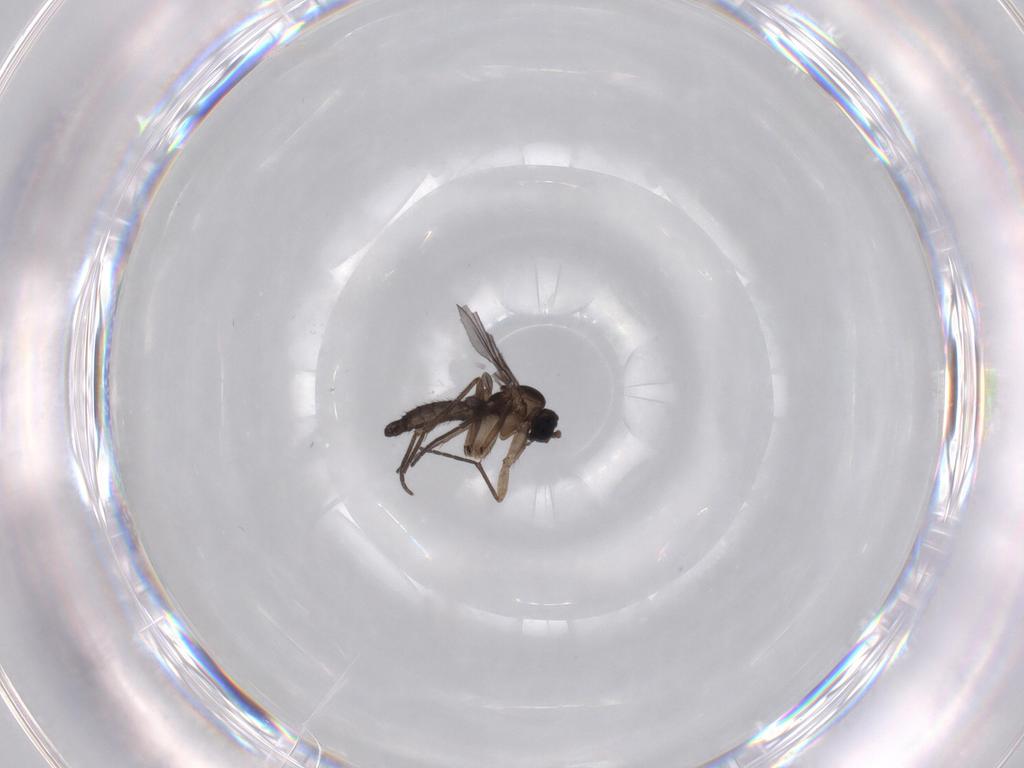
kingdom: Animalia
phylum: Arthropoda
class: Insecta
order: Diptera
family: Sciaridae
